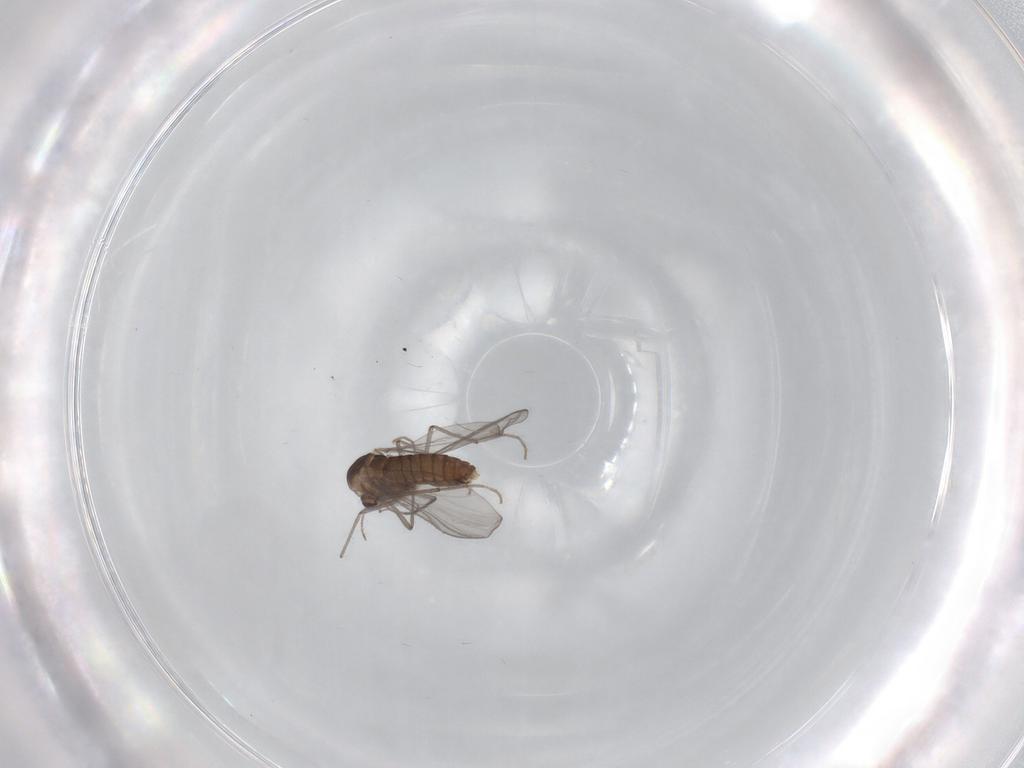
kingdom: Animalia
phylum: Arthropoda
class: Insecta
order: Diptera
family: Chironomidae
